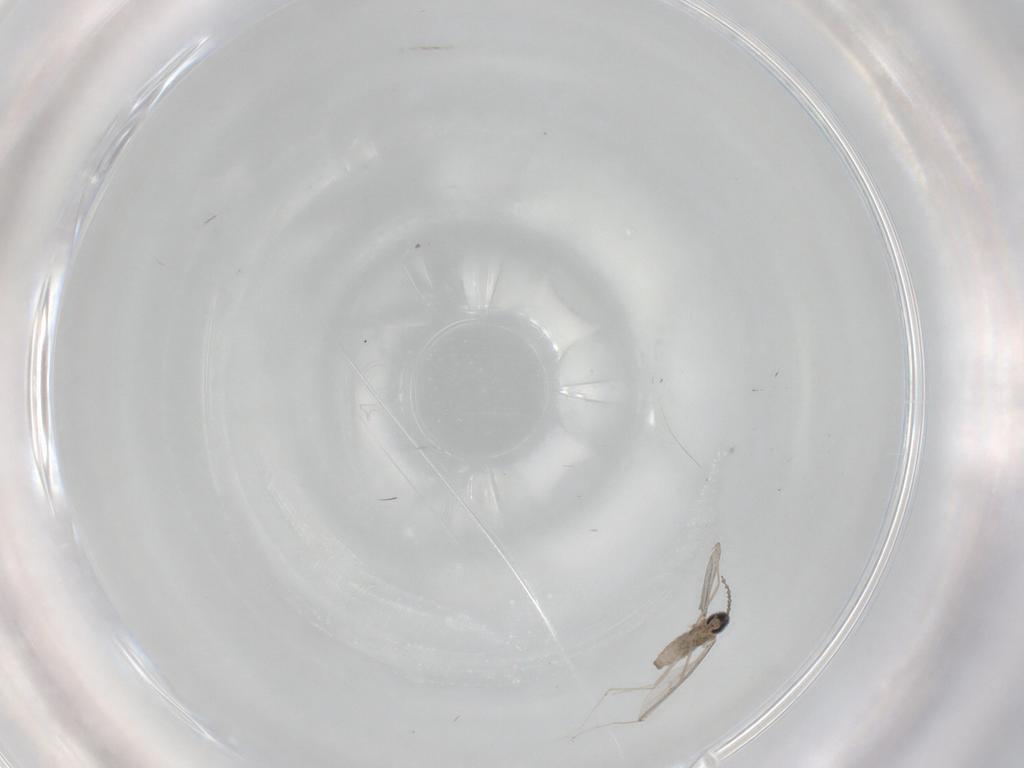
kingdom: Animalia
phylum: Arthropoda
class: Insecta
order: Diptera
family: Cecidomyiidae
